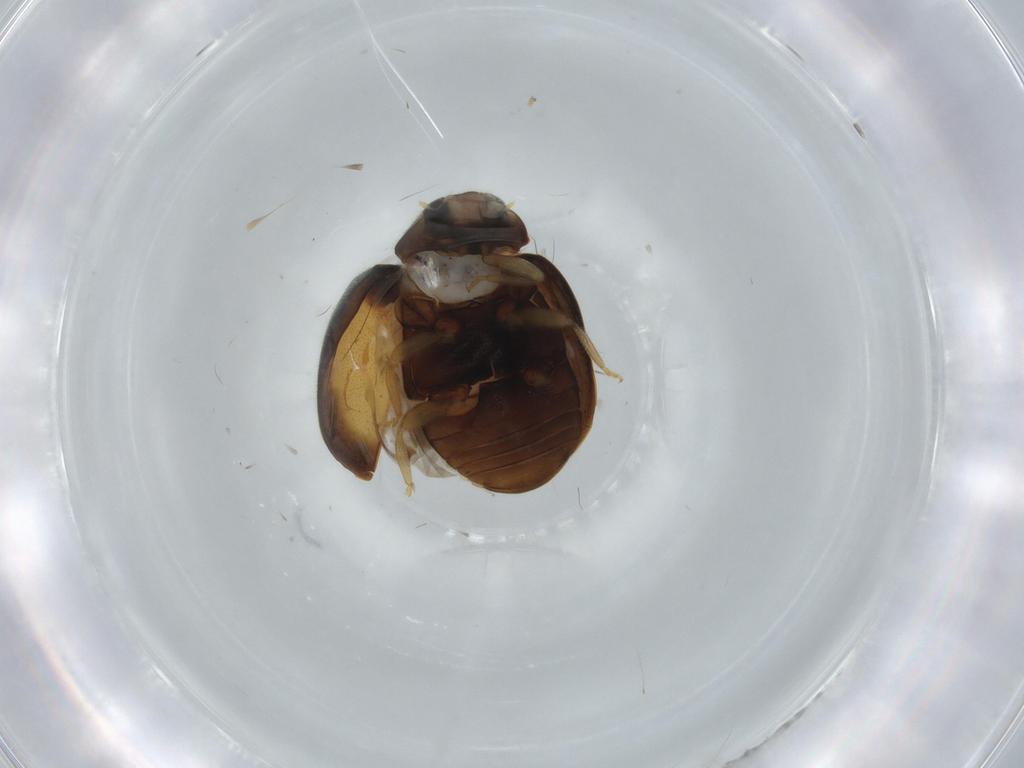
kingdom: Animalia
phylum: Arthropoda
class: Insecta
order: Coleoptera
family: Coccinellidae
